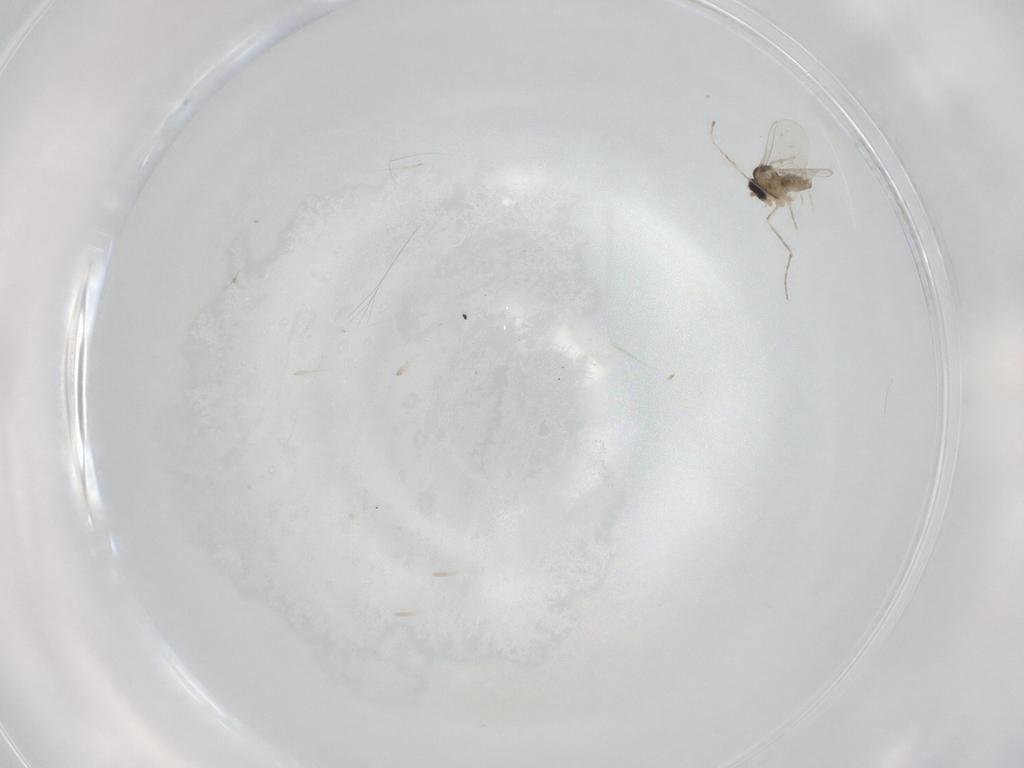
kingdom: Animalia
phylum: Arthropoda
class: Insecta
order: Diptera
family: Cecidomyiidae
